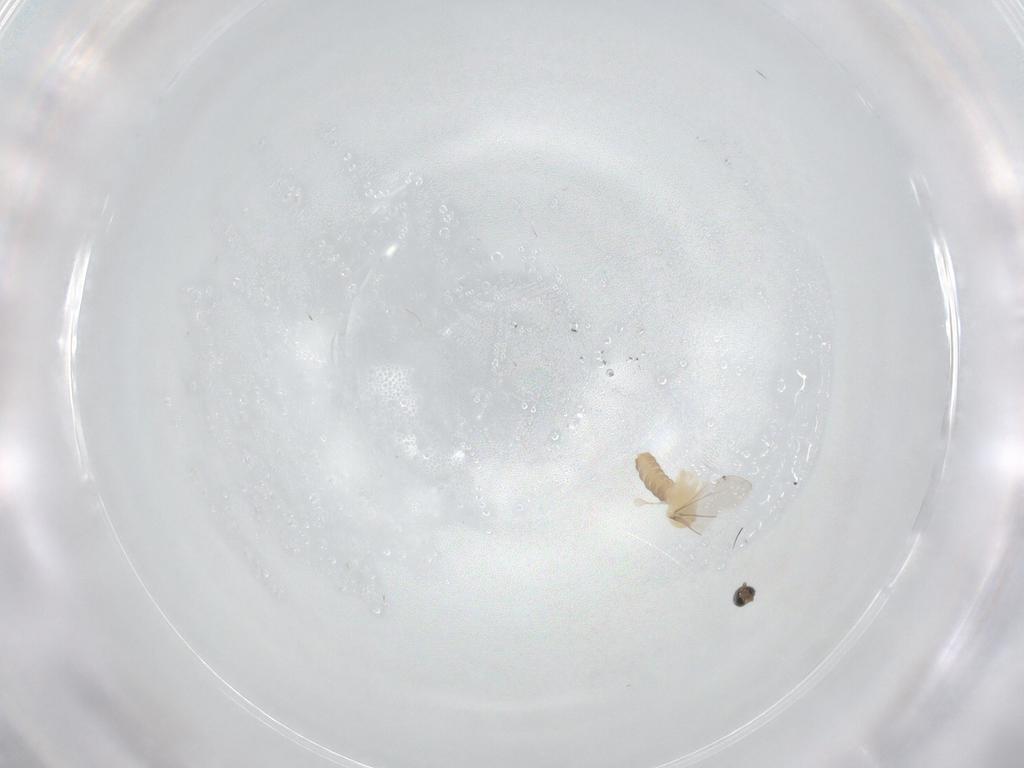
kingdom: Animalia
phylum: Arthropoda
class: Insecta
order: Diptera
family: Cecidomyiidae
